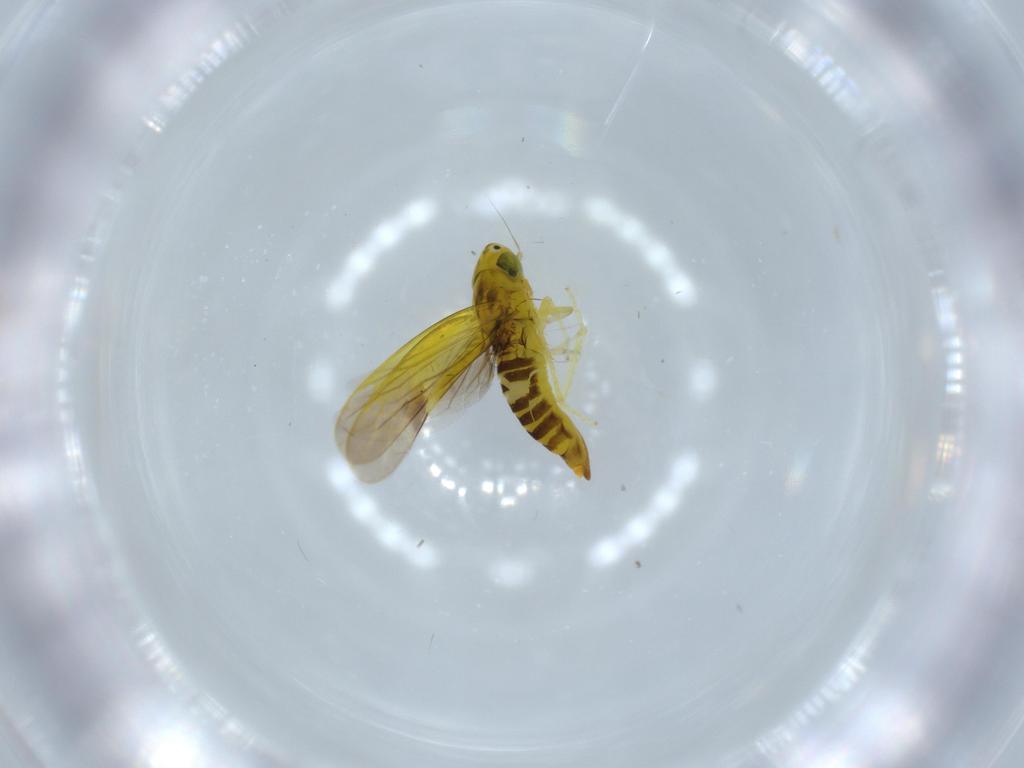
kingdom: Animalia
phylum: Arthropoda
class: Insecta
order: Hemiptera
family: Cicadellidae
